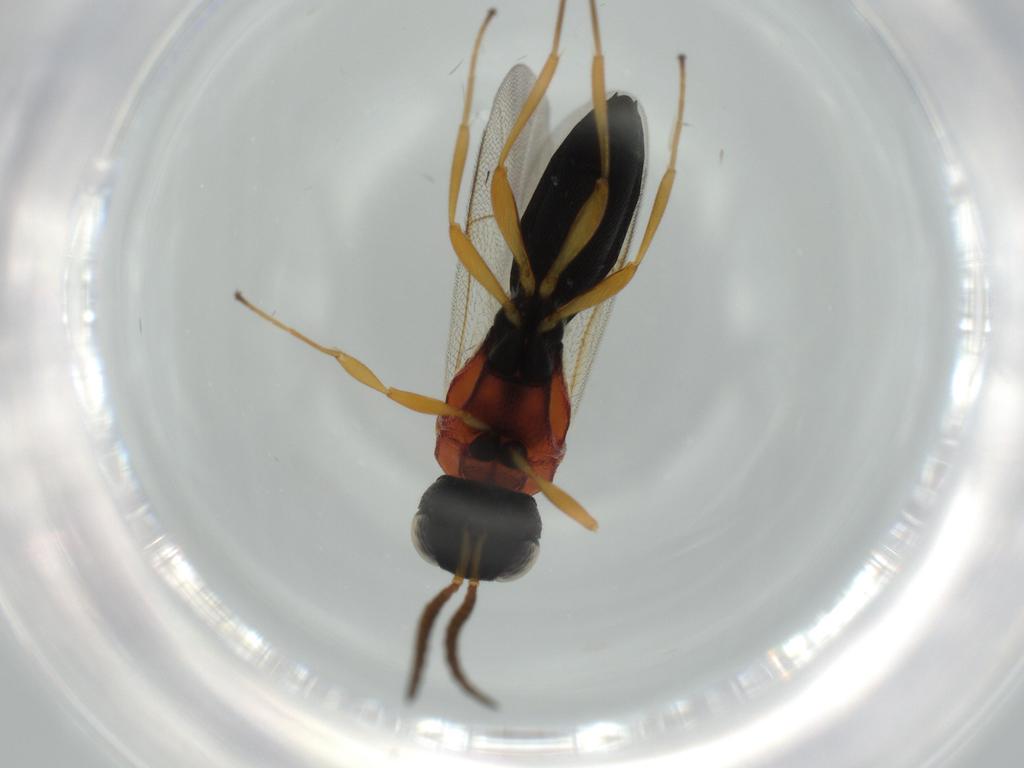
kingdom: Animalia
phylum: Arthropoda
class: Insecta
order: Hymenoptera
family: Scelionidae
